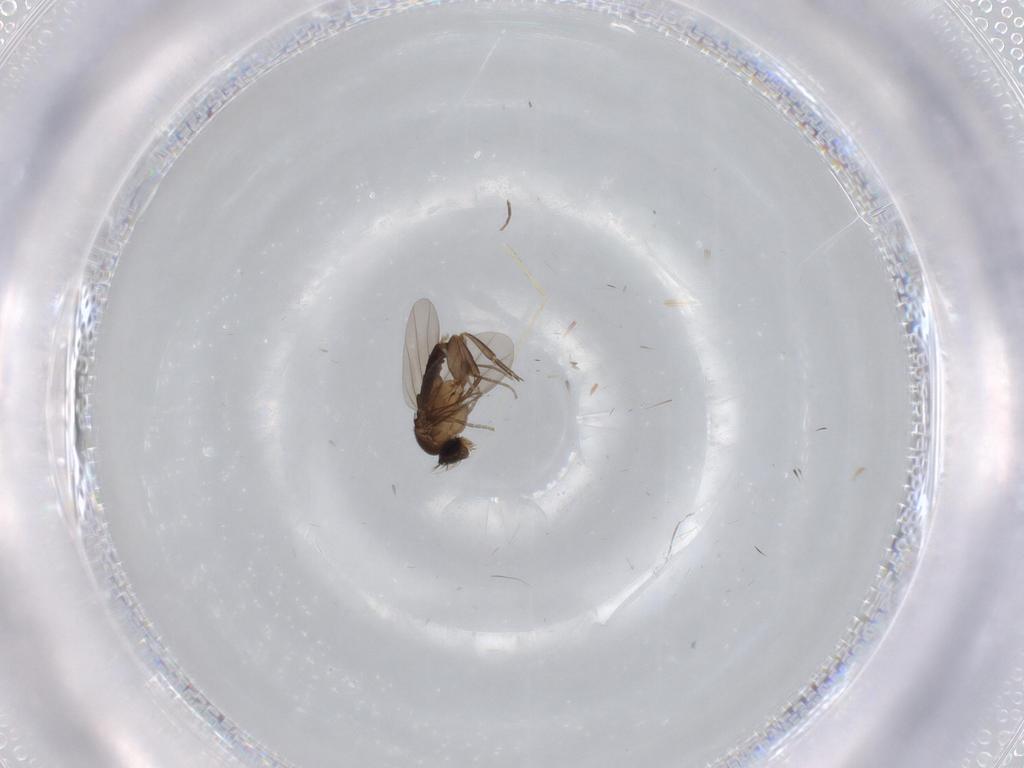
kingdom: Animalia
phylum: Arthropoda
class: Insecta
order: Diptera
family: Phoridae
